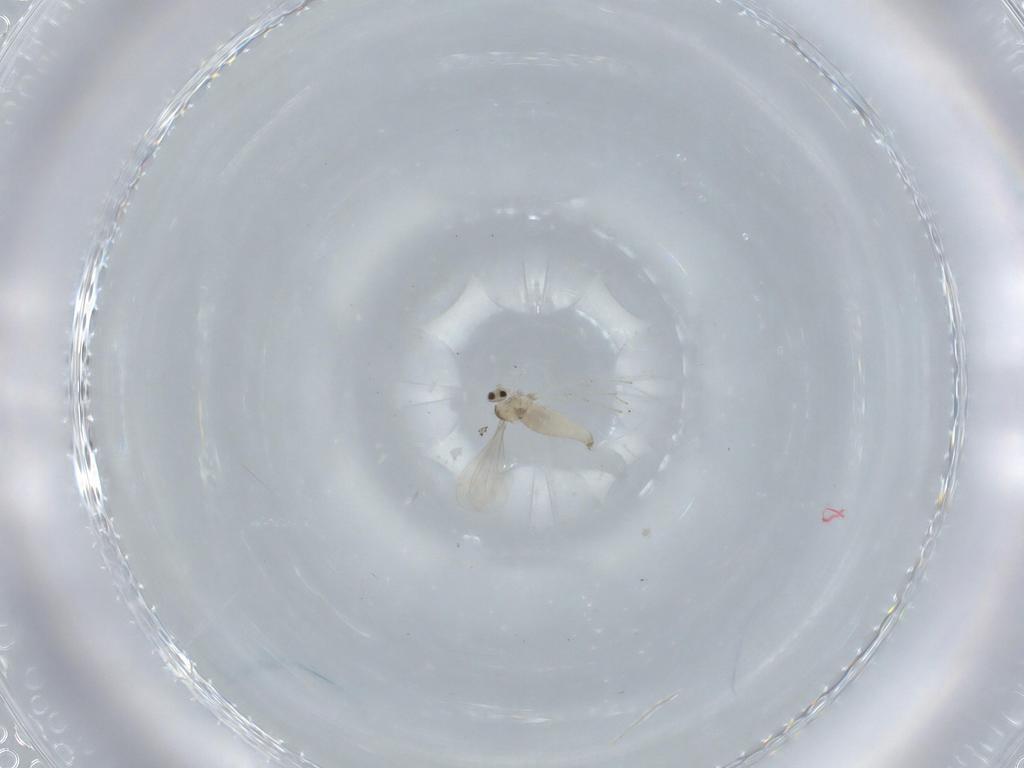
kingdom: Animalia
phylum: Arthropoda
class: Insecta
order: Diptera
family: Cecidomyiidae
